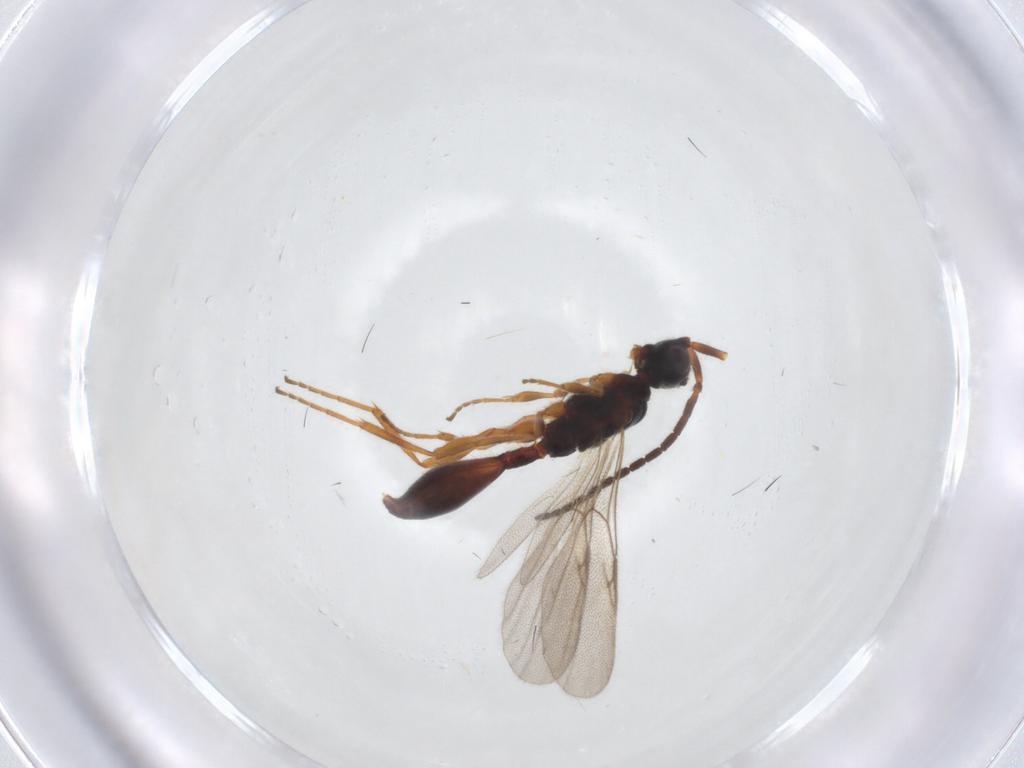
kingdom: Animalia
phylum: Arthropoda
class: Insecta
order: Hymenoptera
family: Diapriidae
